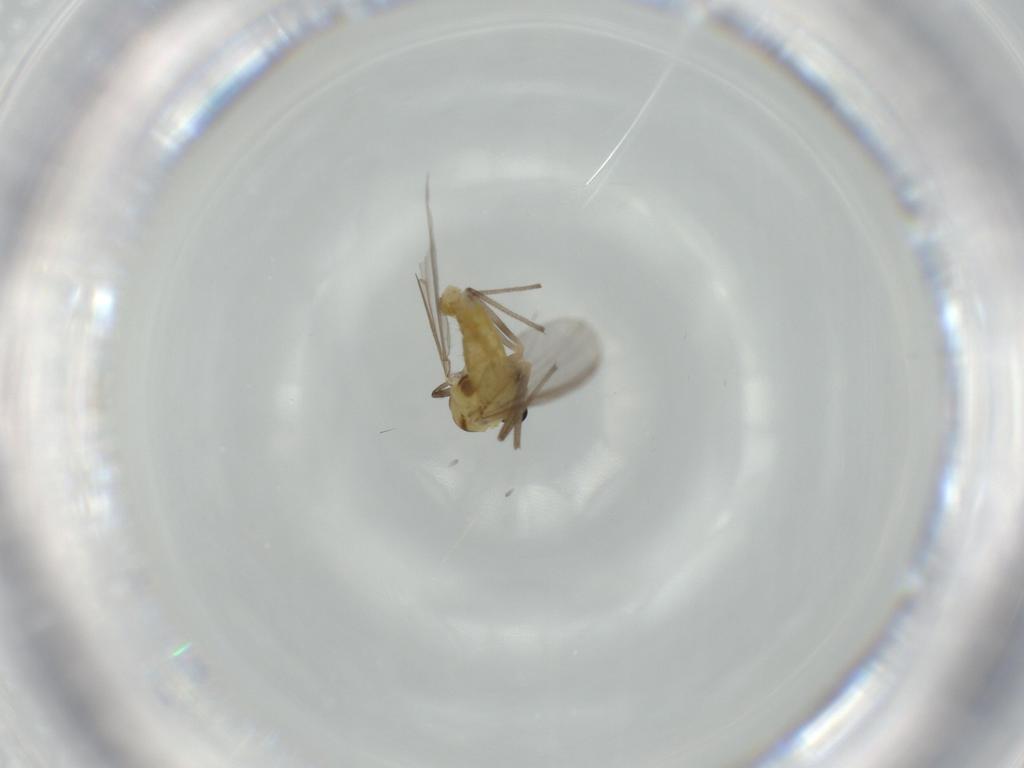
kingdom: Animalia
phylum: Arthropoda
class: Insecta
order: Diptera
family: Chironomidae
